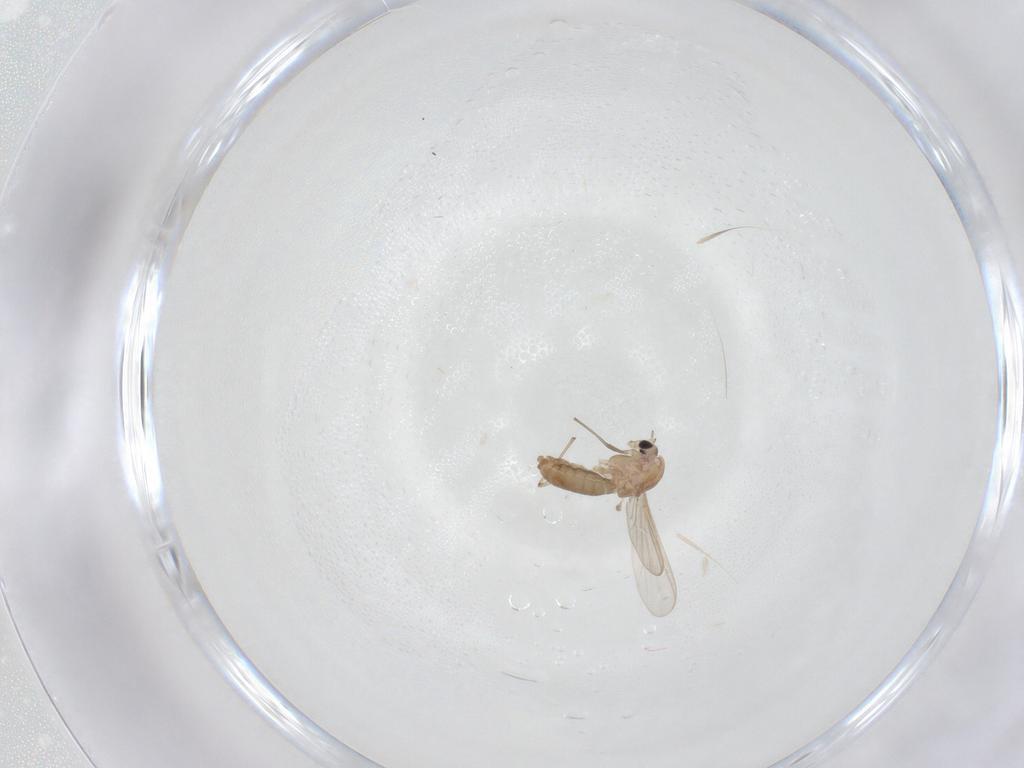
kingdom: Animalia
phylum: Arthropoda
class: Insecta
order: Diptera
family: Chironomidae
